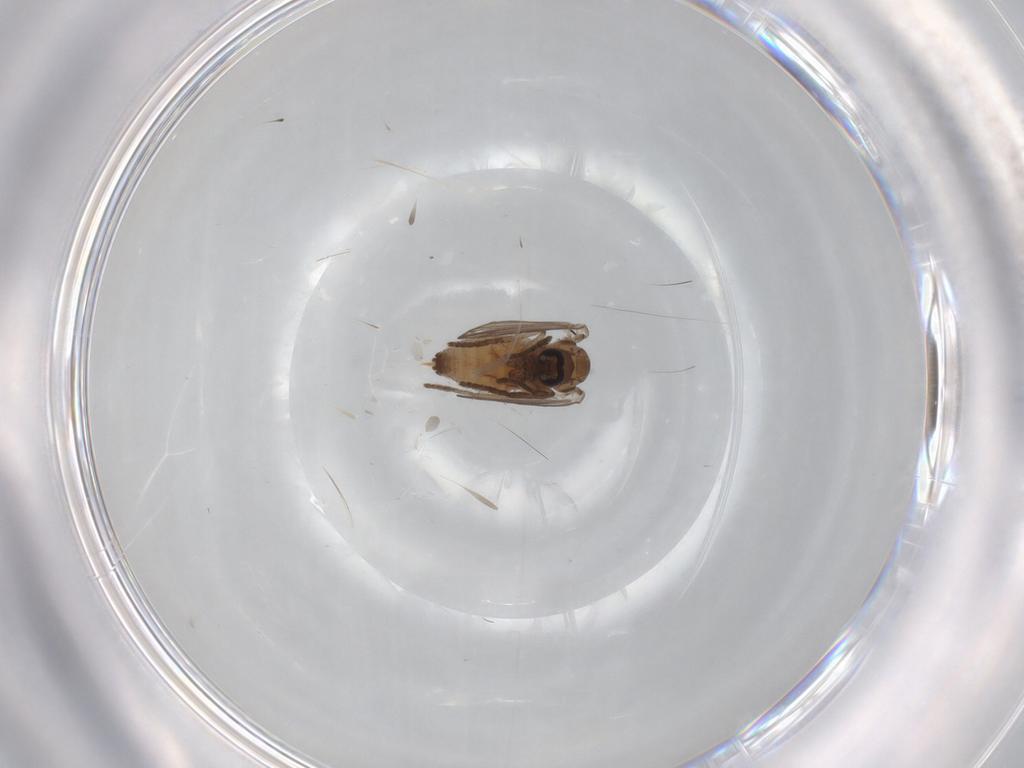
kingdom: Animalia
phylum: Arthropoda
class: Insecta
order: Diptera
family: Psychodidae
